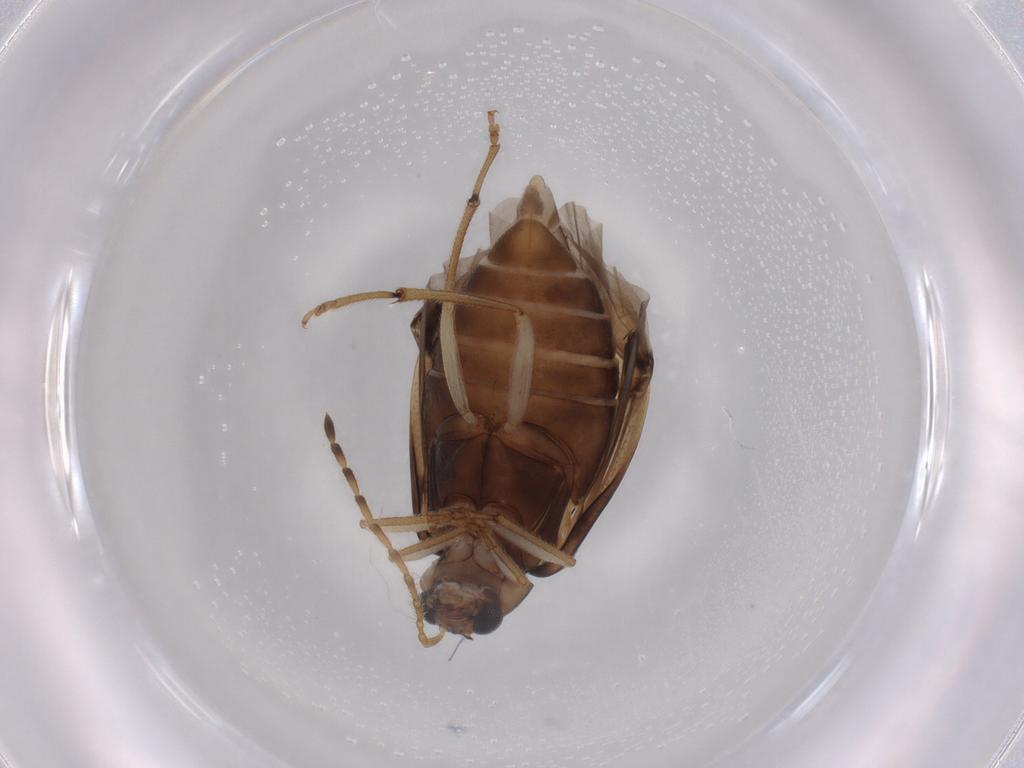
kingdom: Animalia
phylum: Arthropoda
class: Insecta
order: Coleoptera
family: Chrysomelidae
